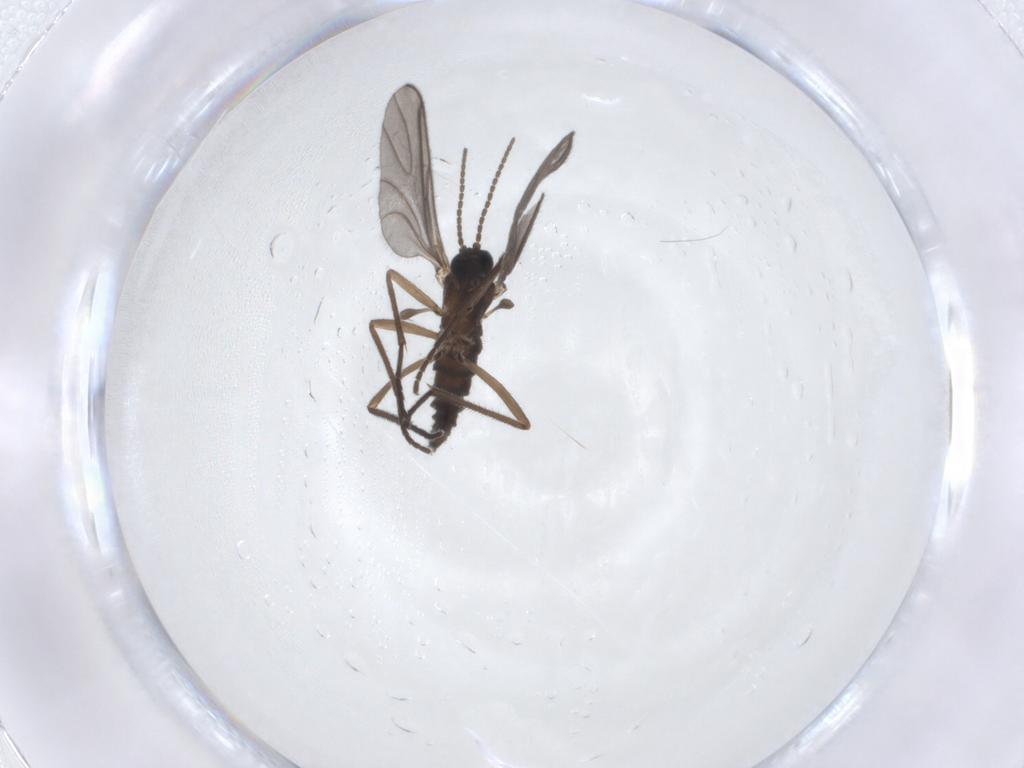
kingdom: Animalia
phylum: Arthropoda
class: Insecta
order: Diptera
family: Sciaridae
